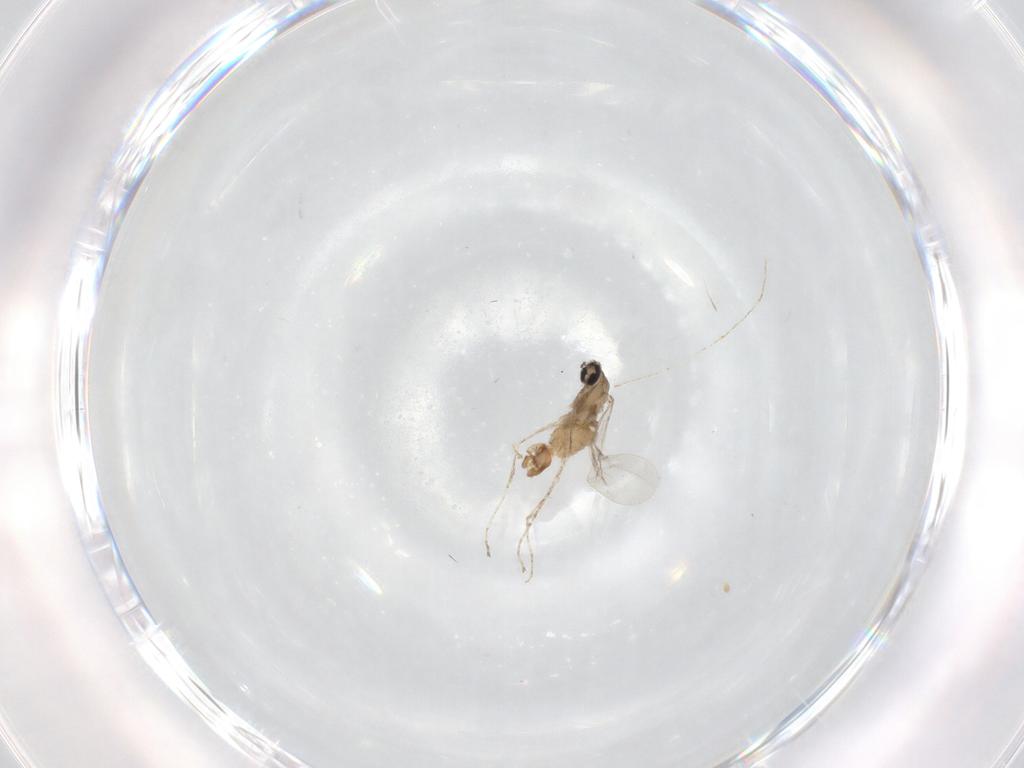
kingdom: Animalia
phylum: Arthropoda
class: Insecta
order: Diptera
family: Cecidomyiidae
